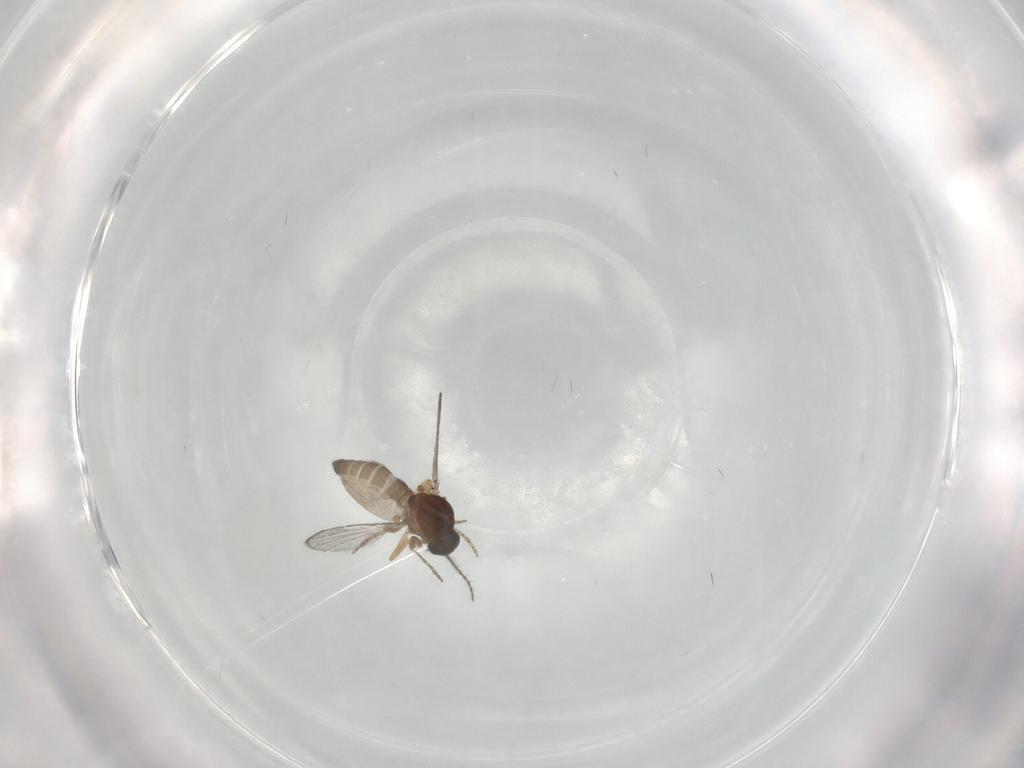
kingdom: Animalia
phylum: Arthropoda
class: Insecta
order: Diptera
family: Ceratopogonidae
